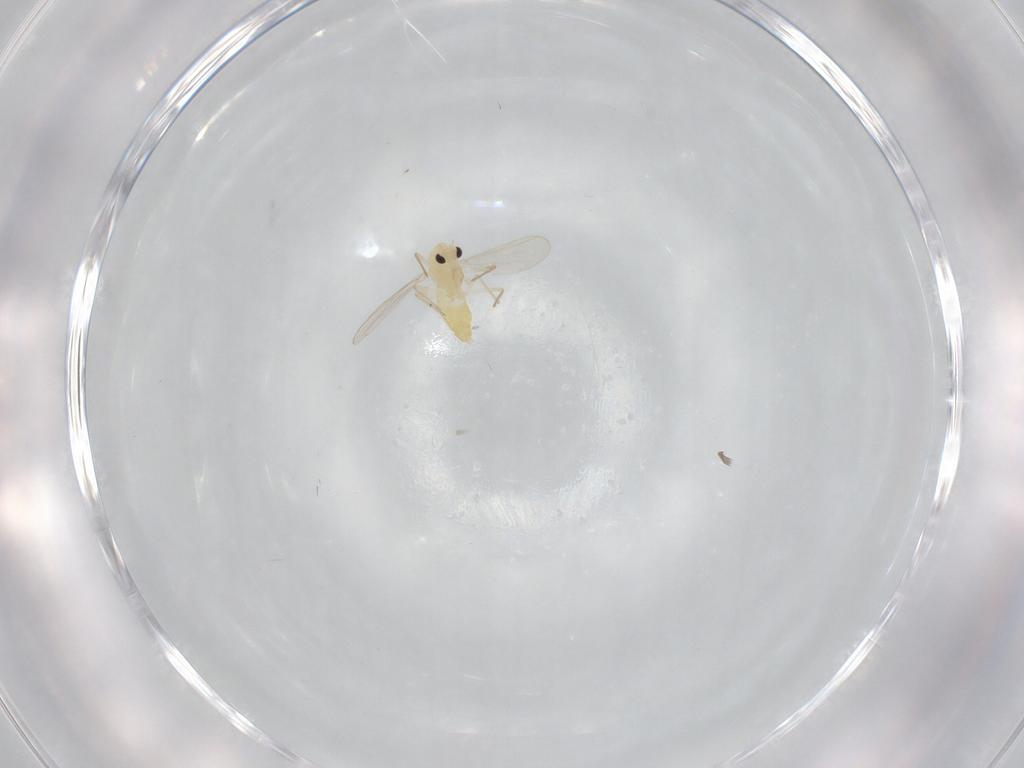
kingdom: Animalia
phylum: Arthropoda
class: Insecta
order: Diptera
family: Chironomidae
